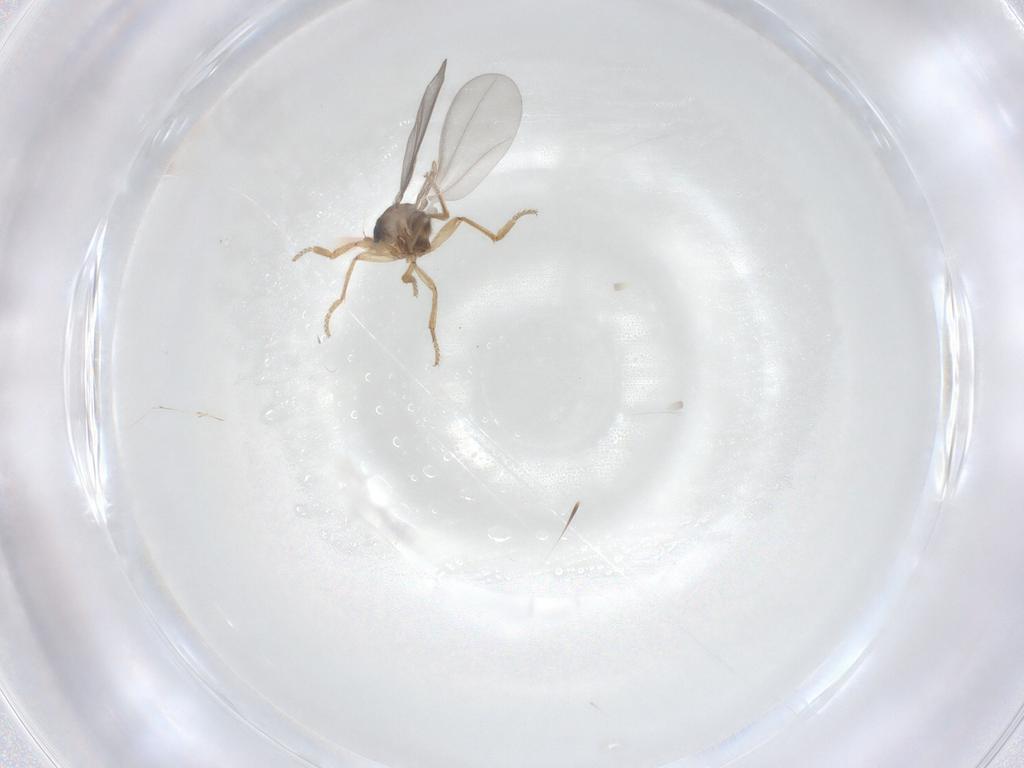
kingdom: Animalia
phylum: Arthropoda
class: Insecta
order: Diptera
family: Phoridae
